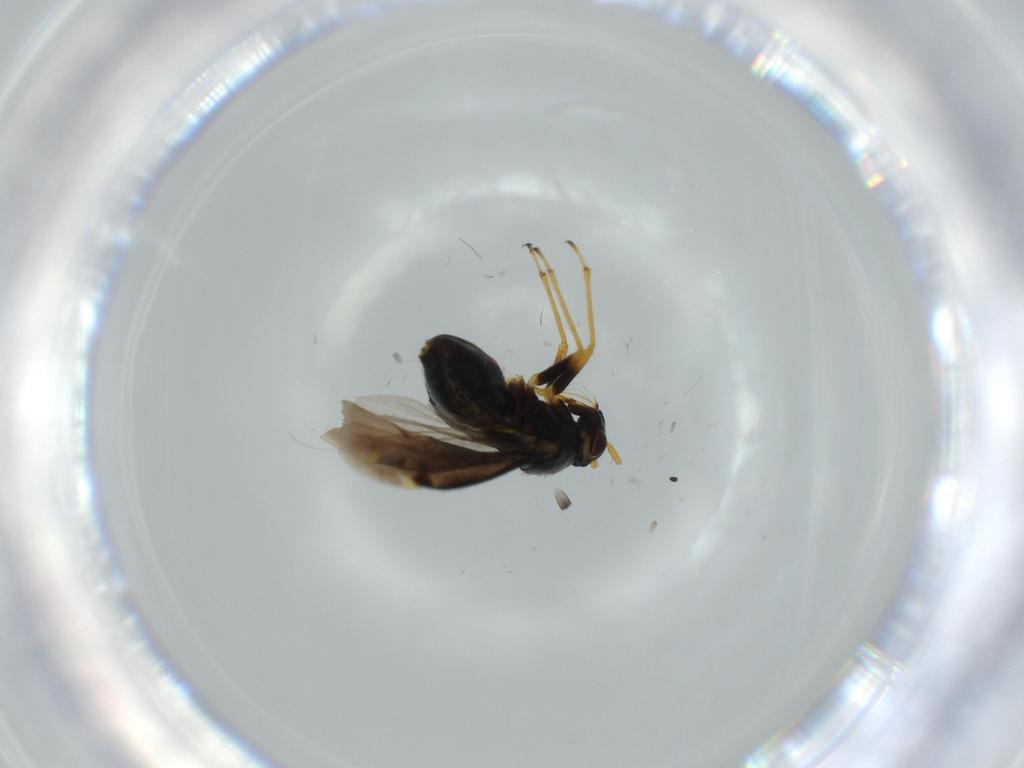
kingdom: Animalia
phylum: Arthropoda
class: Insecta
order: Hemiptera
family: Miridae
